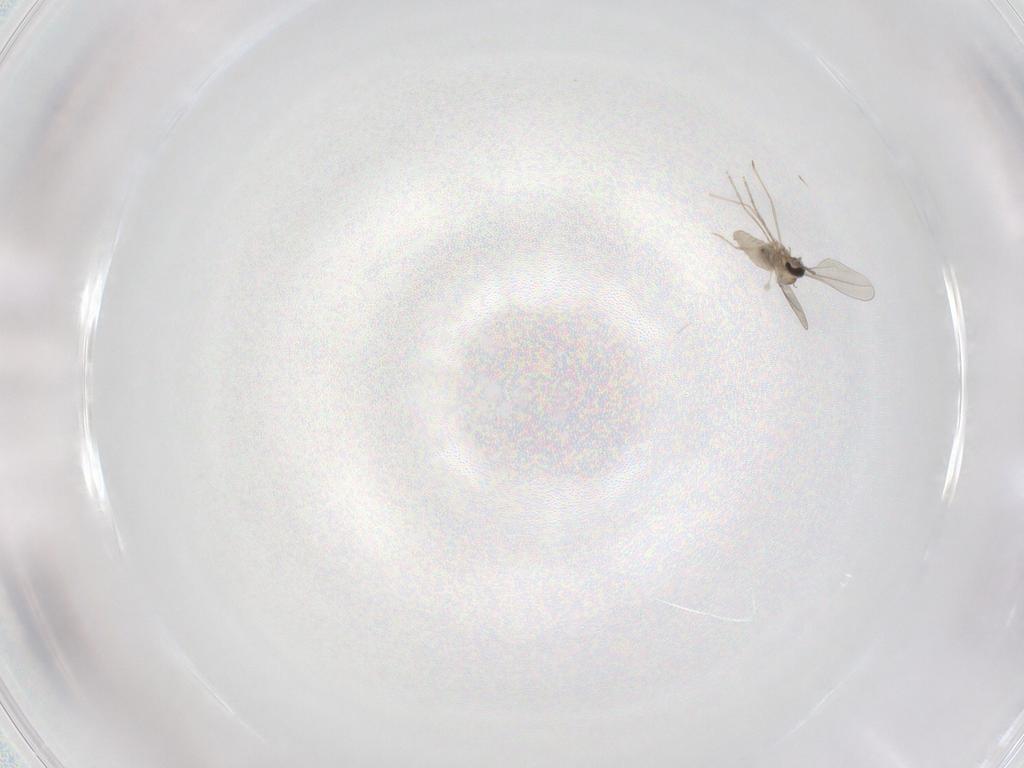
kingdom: Animalia
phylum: Arthropoda
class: Insecta
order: Diptera
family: Cecidomyiidae
